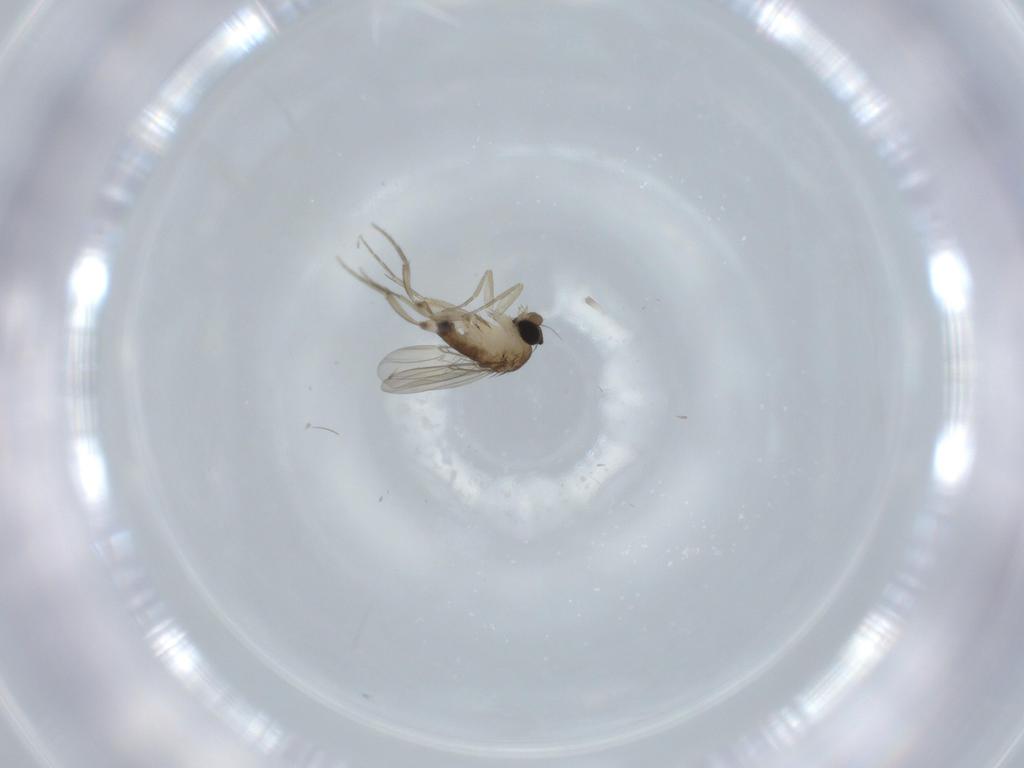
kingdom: Animalia
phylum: Arthropoda
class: Insecta
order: Diptera
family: Phoridae
